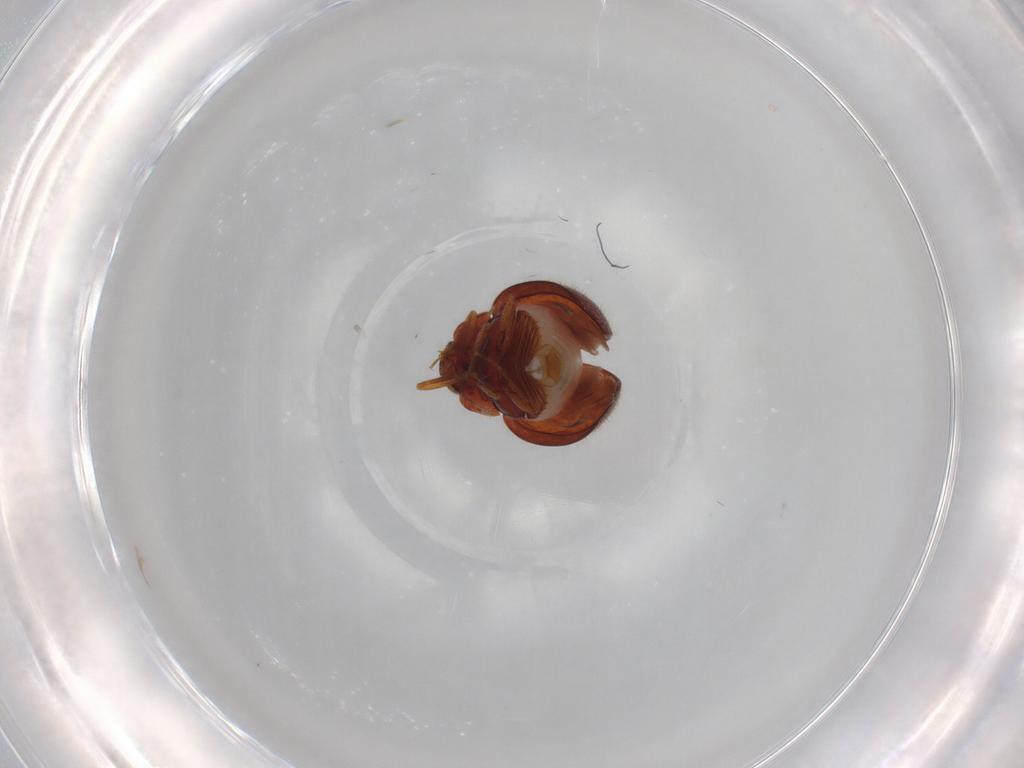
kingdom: Animalia
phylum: Arthropoda
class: Insecta
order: Coleoptera
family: Anamorphidae
